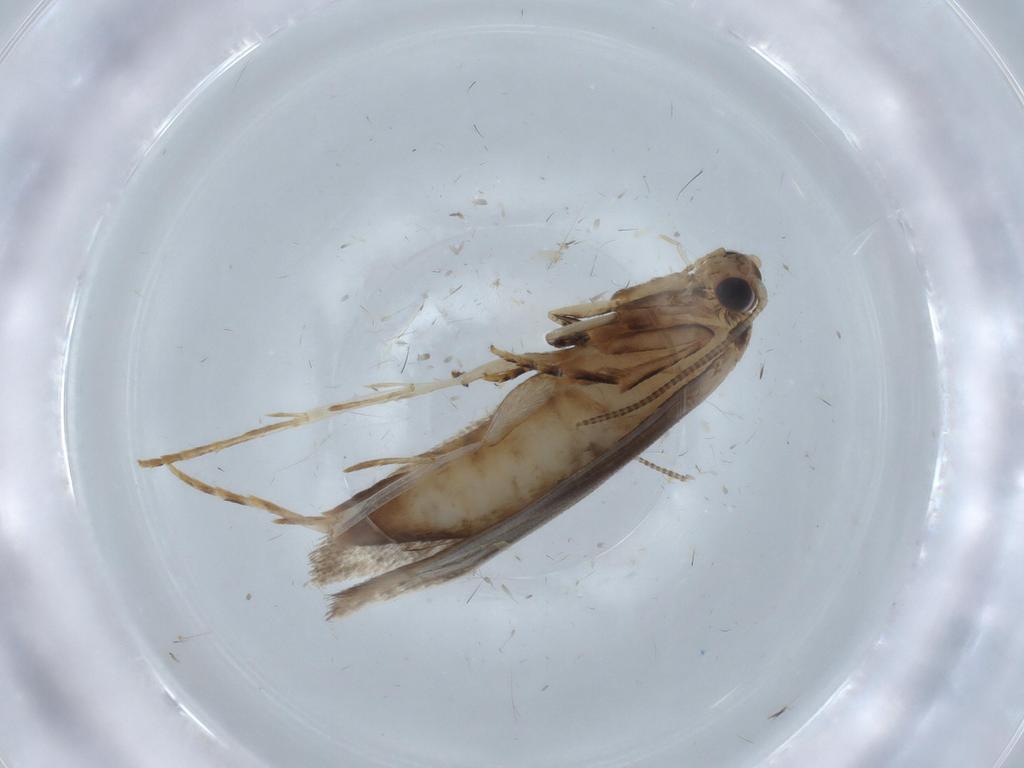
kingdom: Animalia
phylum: Arthropoda
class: Insecta
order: Lepidoptera
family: Tineidae
